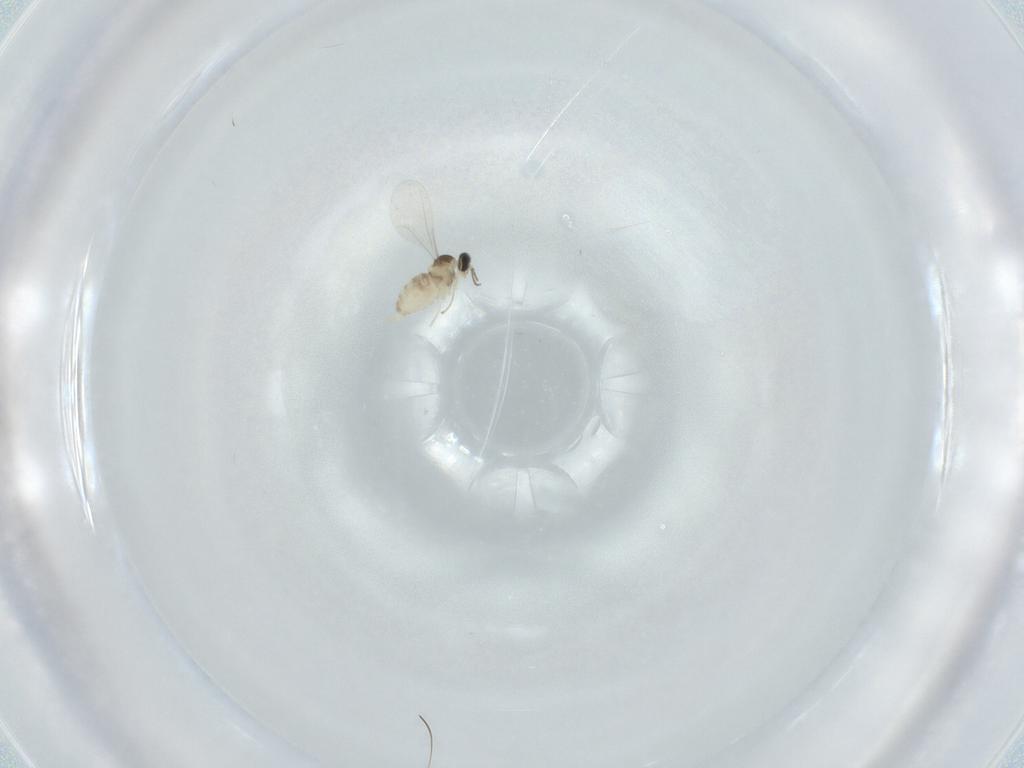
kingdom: Animalia
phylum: Arthropoda
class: Insecta
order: Diptera
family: Cecidomyiidae
